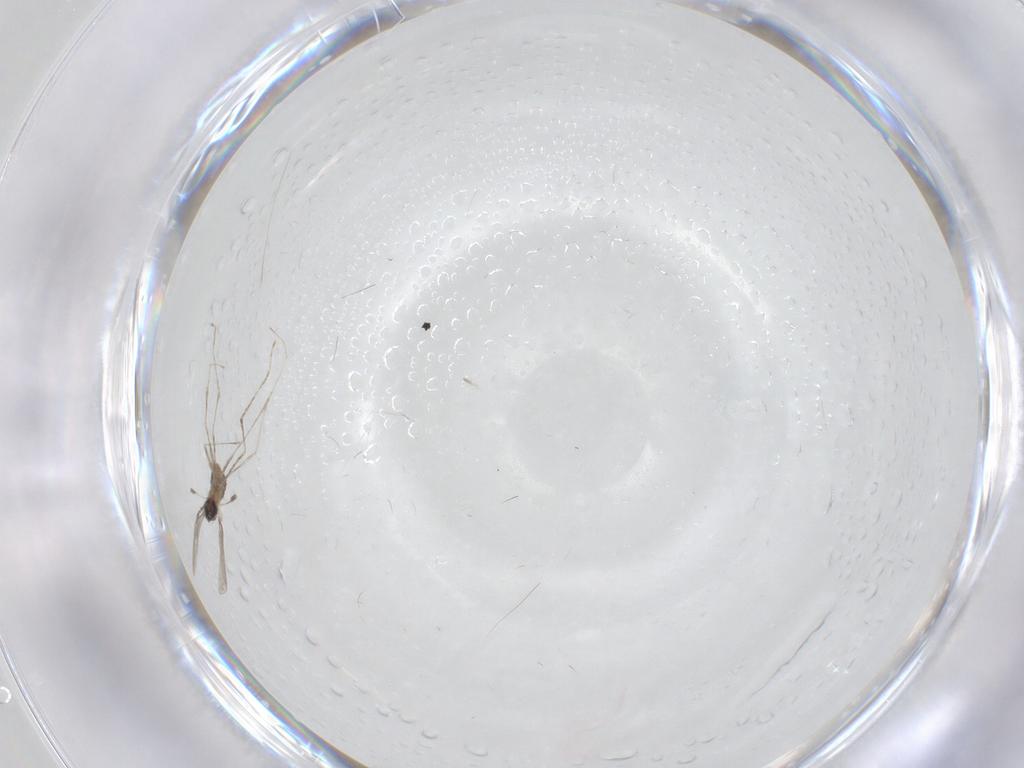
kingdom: Animalia
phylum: Arthropoda
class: Insecta
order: Diptera
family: Cecidomyiidae
